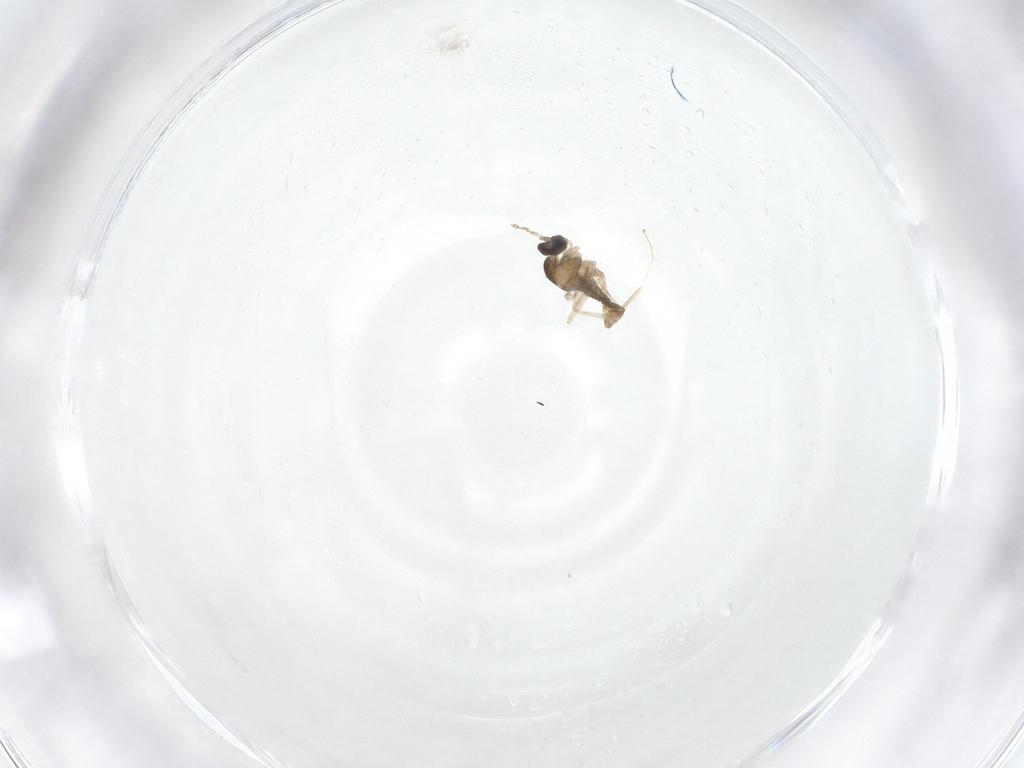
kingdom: Animalia
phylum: Arthropoda
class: Insecta
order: Diptera
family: Cecidomyiidae
